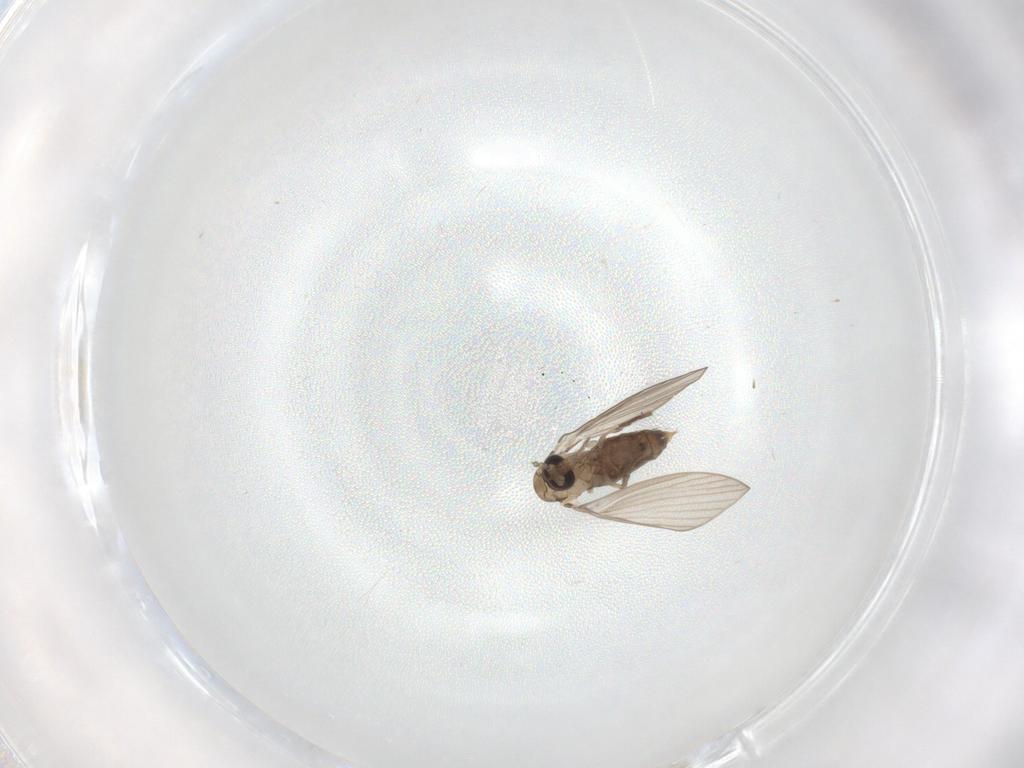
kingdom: Animalia
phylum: Arthropoda
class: Insecta
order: Diptera
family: Psychodidae
